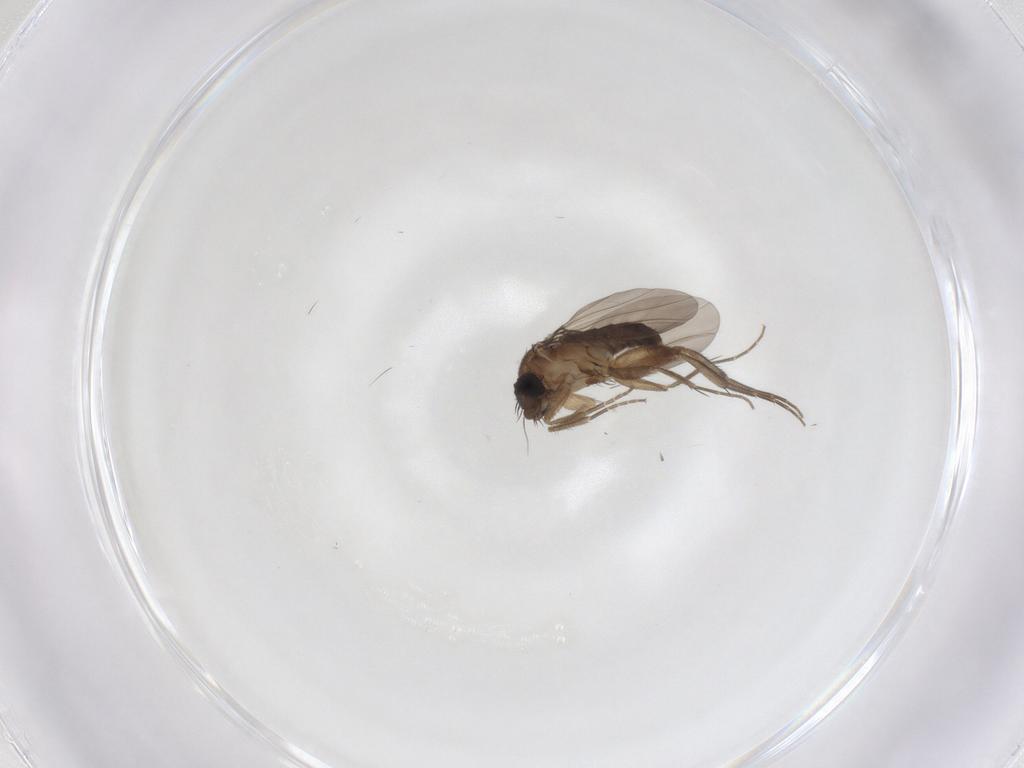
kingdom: Animalia
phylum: Arthropoda
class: Insecta
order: Diptera
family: Phoridae
